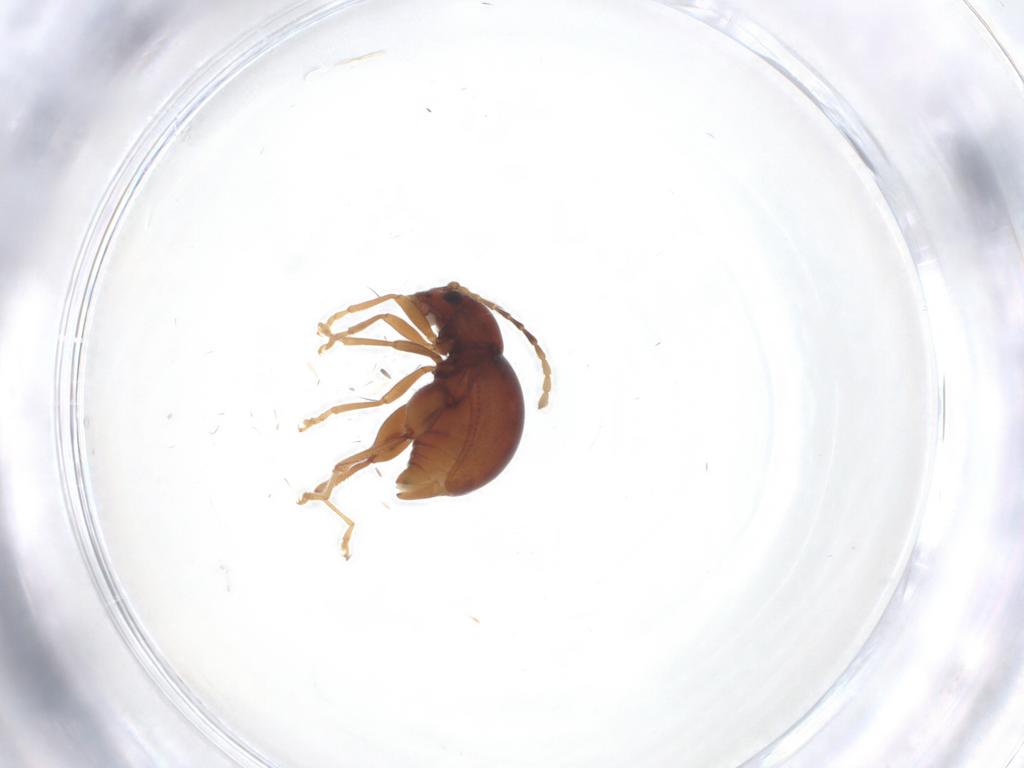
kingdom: Animalia
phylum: Arthropoda
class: Insecta
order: Coleoptera
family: Chrysomelidae
